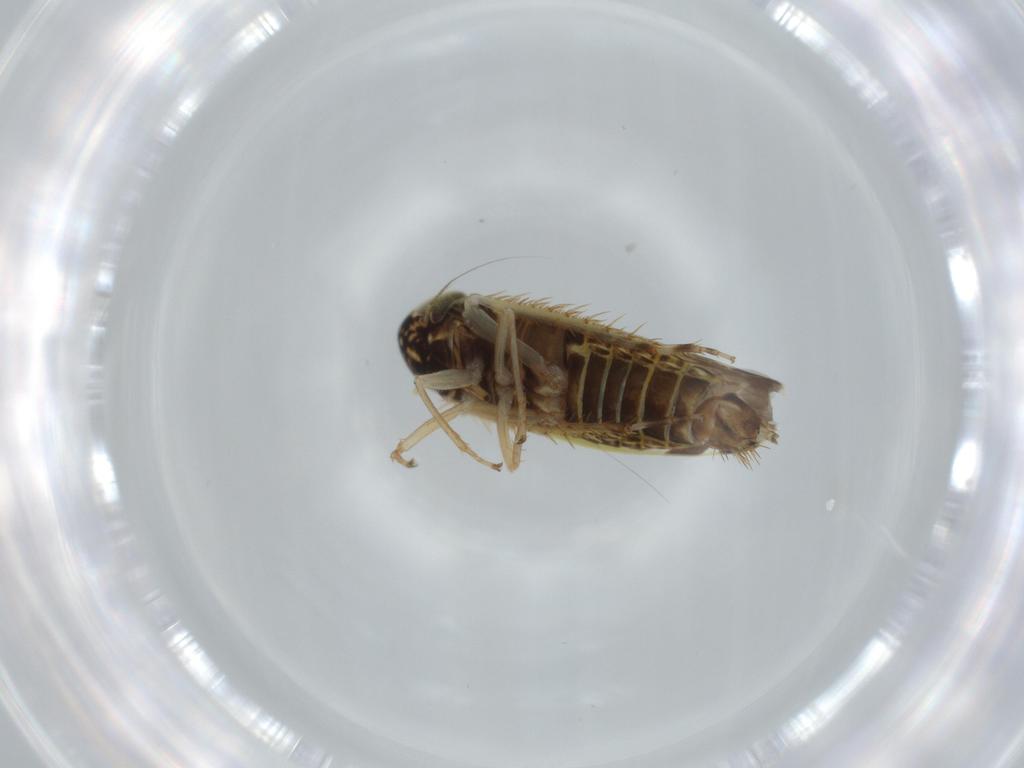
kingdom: Animalia
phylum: Arthropoda
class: Insecta
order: Hemiptera
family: Cicadellidae
